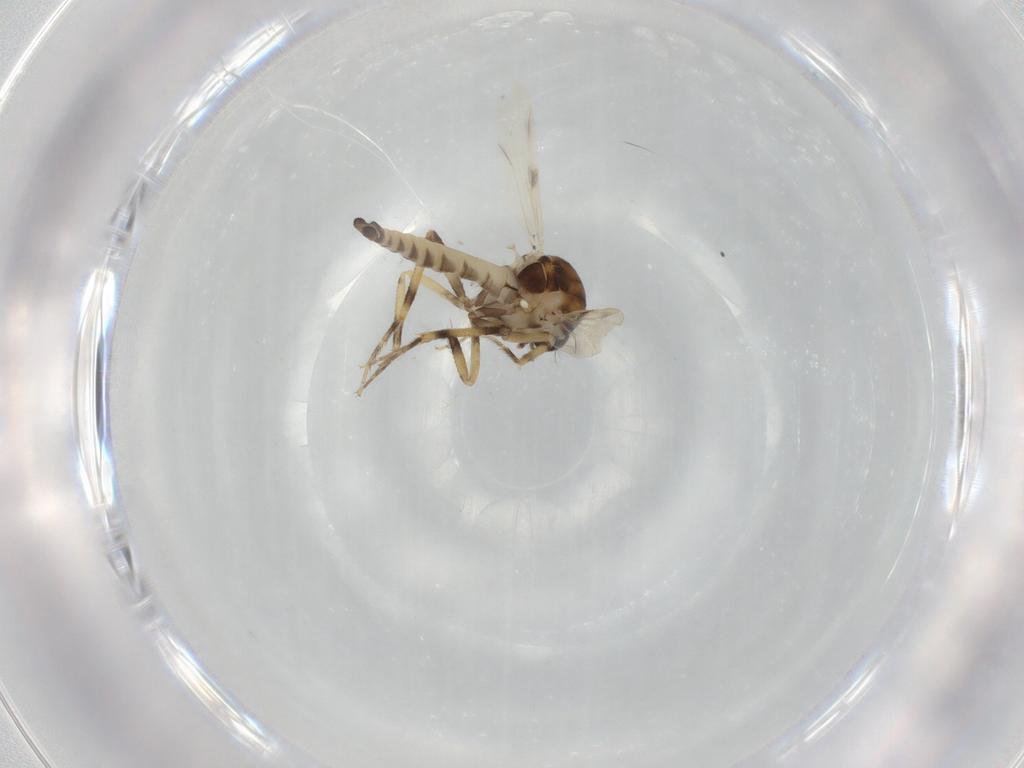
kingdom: Animalia
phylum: Arthropoda
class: Insecta
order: Diptera
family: Ceratopogonidae
